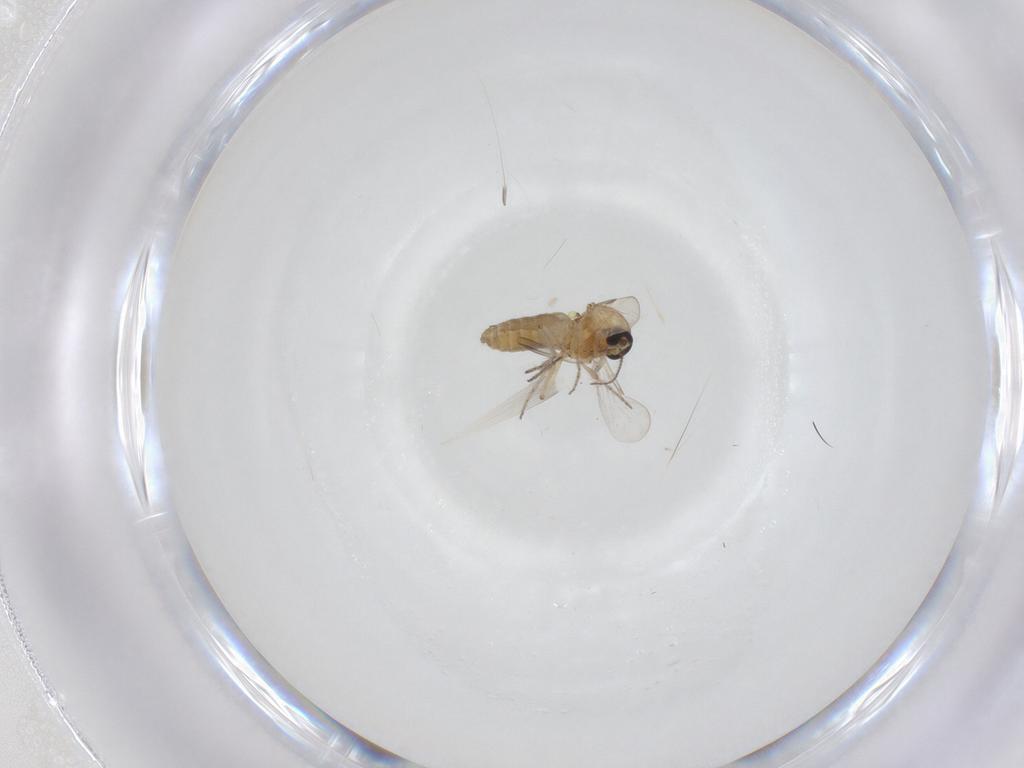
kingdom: Animalia
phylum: Arthropoda
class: Insecta
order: Diptera
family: Ceratopogonidae
